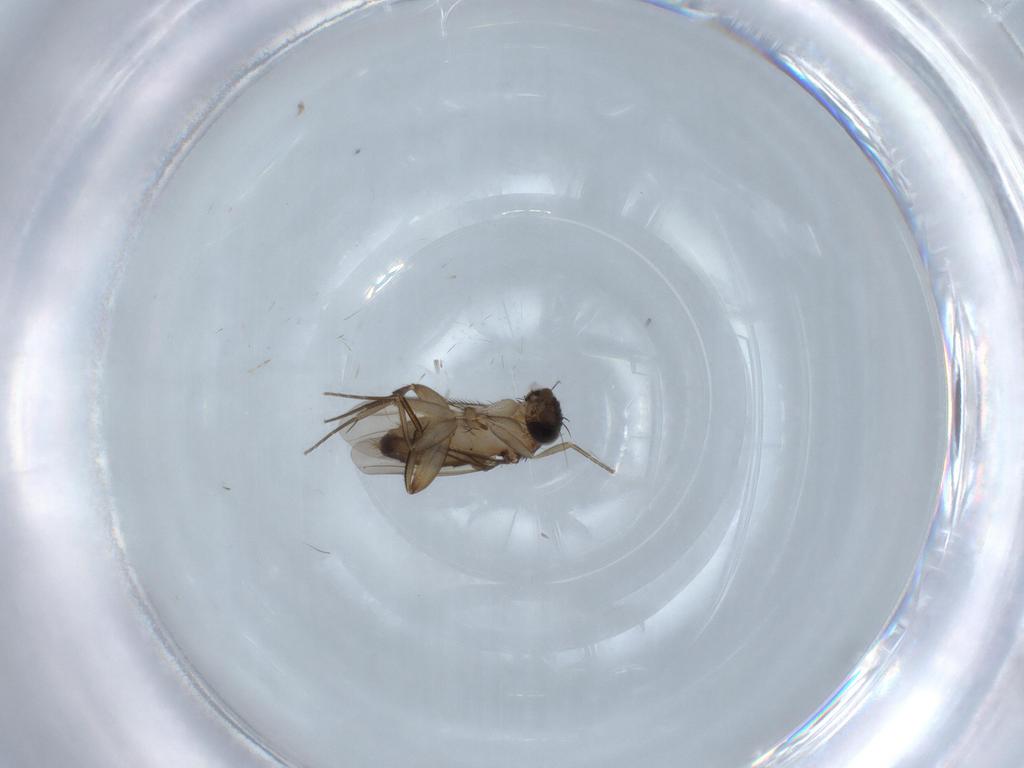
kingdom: Animalia
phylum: Arthropoda
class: Insecta
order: Diptera
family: Phoridae
